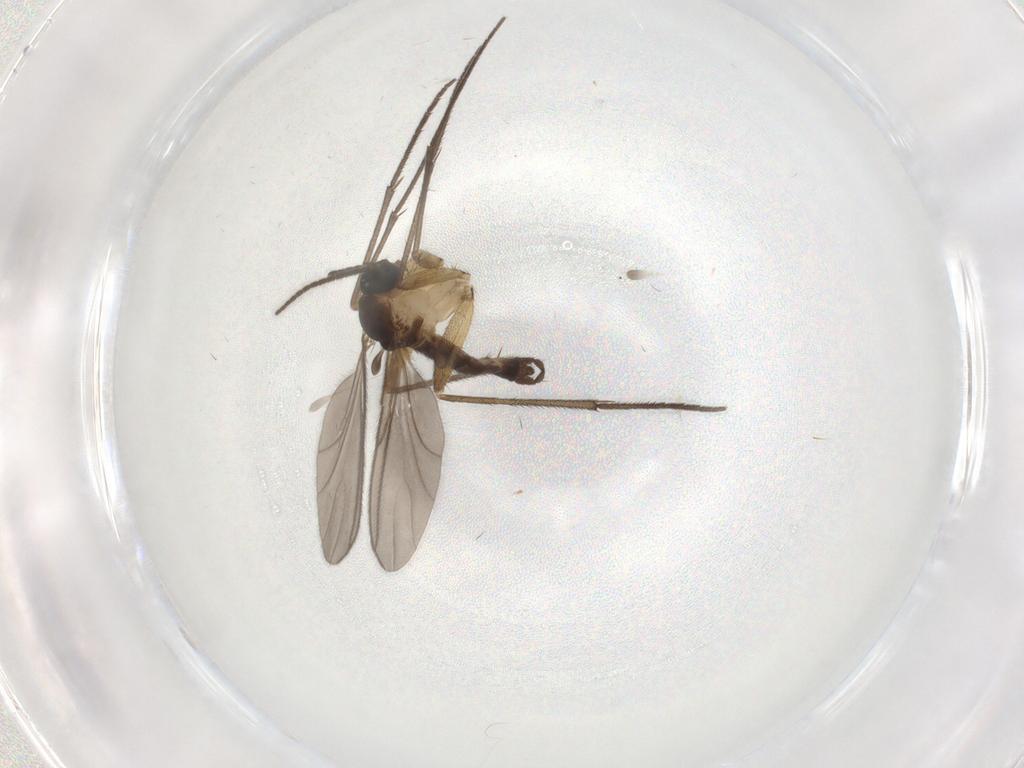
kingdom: Animalia
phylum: Arthropoda
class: Insecta
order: Diptera
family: Sciaridae
